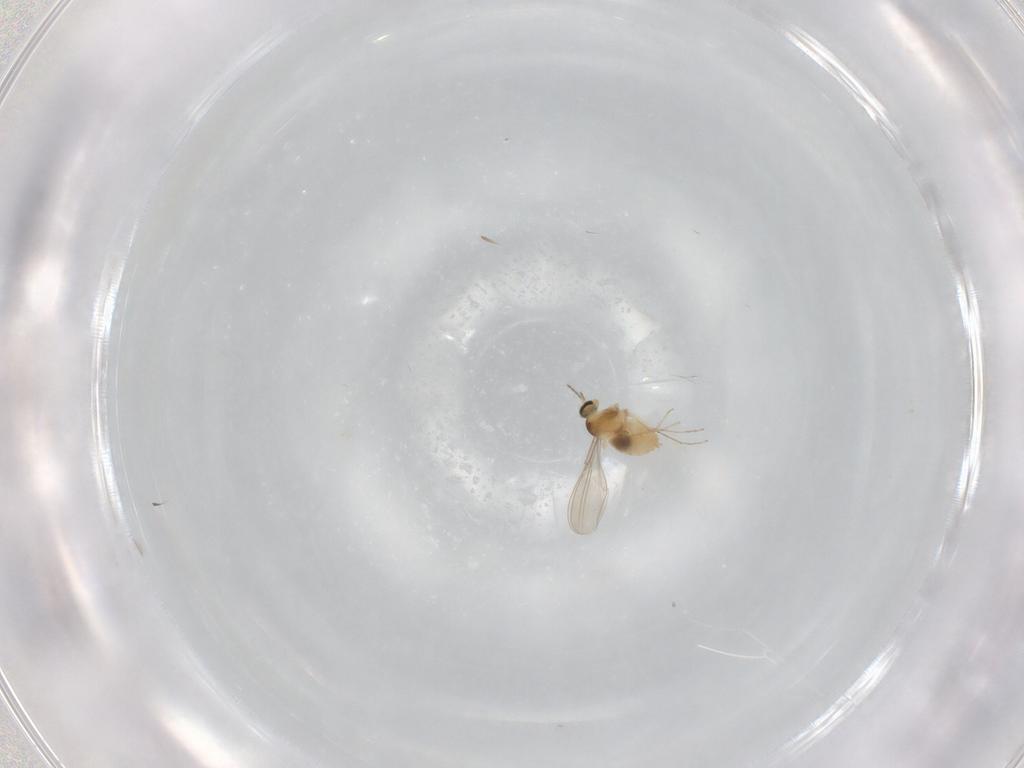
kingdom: Animalia
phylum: Arthropoda
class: Insecta
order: Diptera
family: Cecidomyiidae
